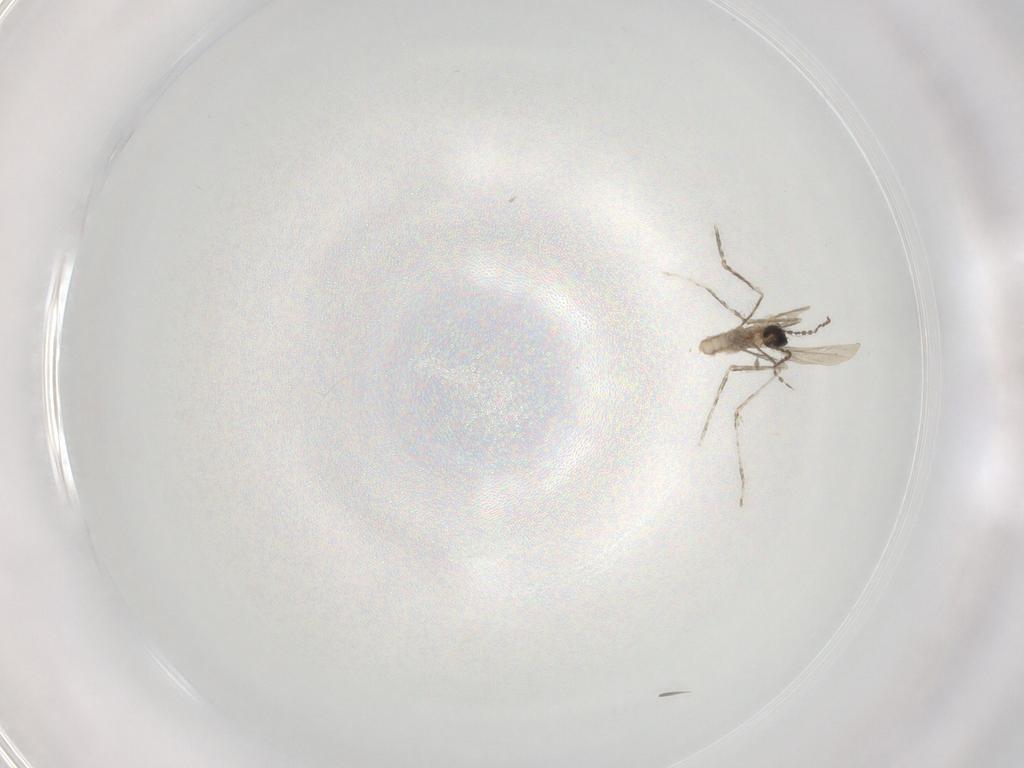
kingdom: Animalia
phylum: Arthropoda
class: Insecta
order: Diptera
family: Cecidomyiidae
